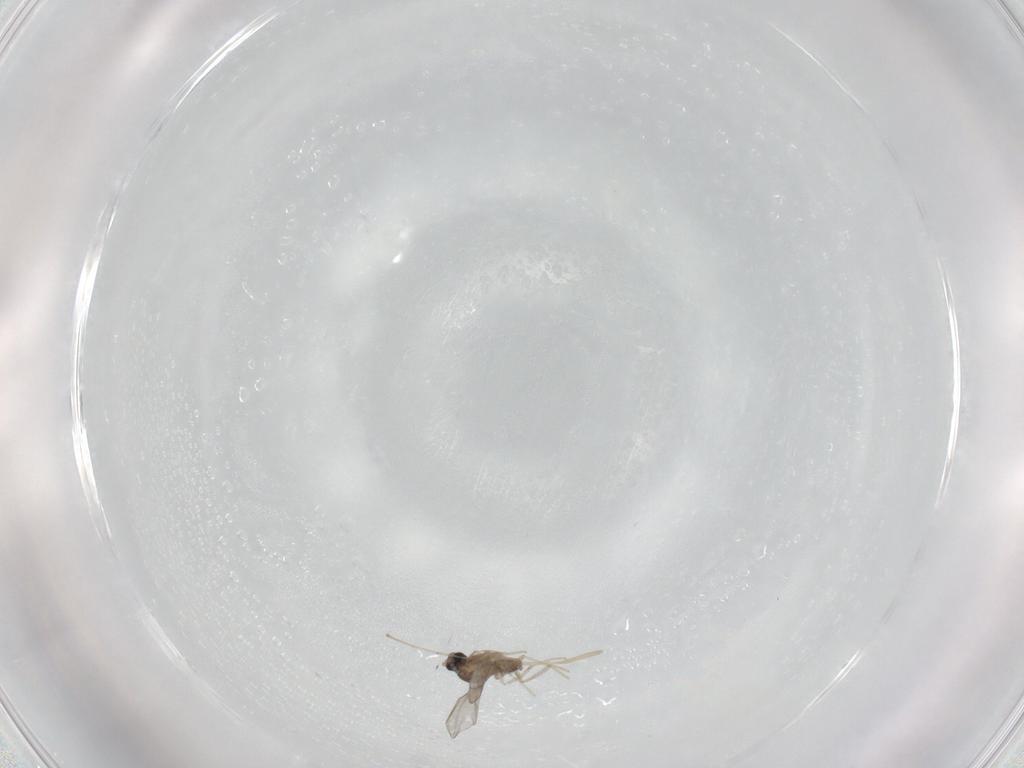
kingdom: Animalia
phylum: Arthropoda
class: Insecta
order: Diptera
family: Cecidomyiidae
